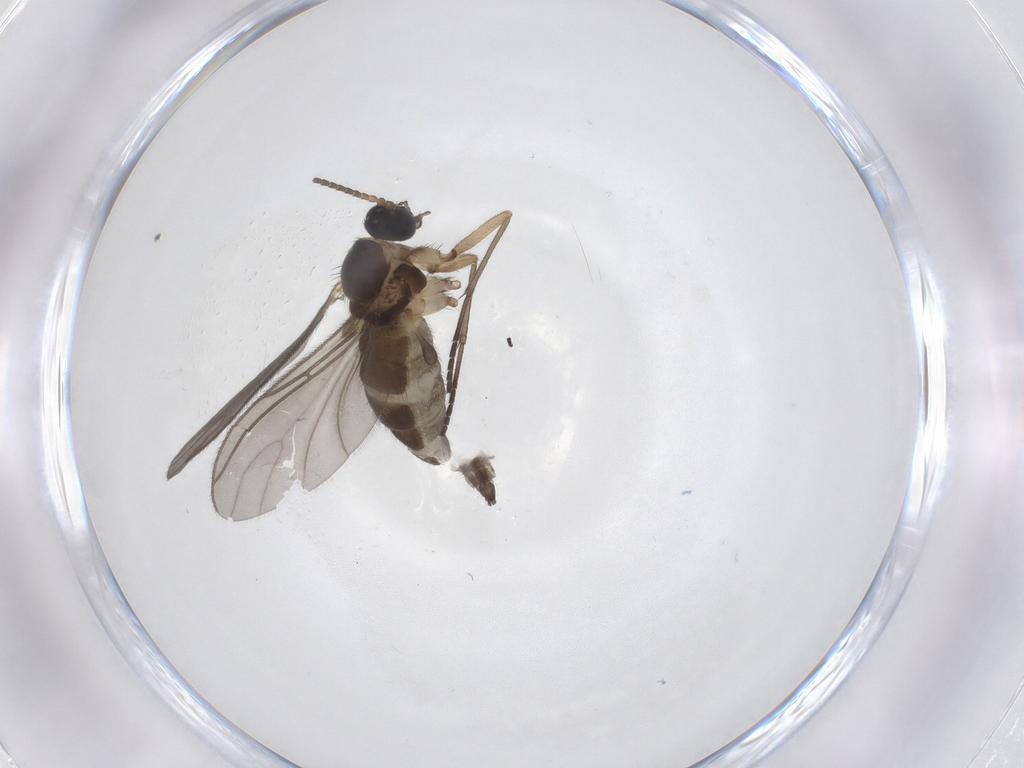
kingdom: Animalia
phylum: Arthropoda
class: Insecta
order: Diptera
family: Sciaridae
